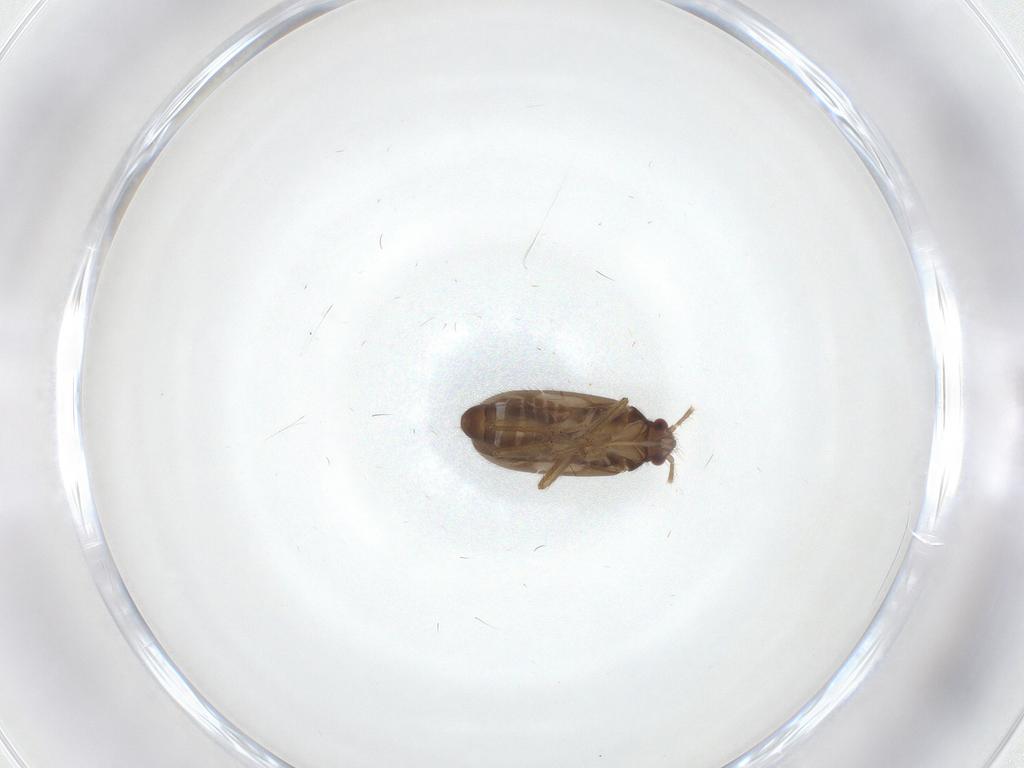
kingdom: Animalia
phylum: Arthropoda
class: Insecta
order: Hemiptera
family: Ceratocombidae
